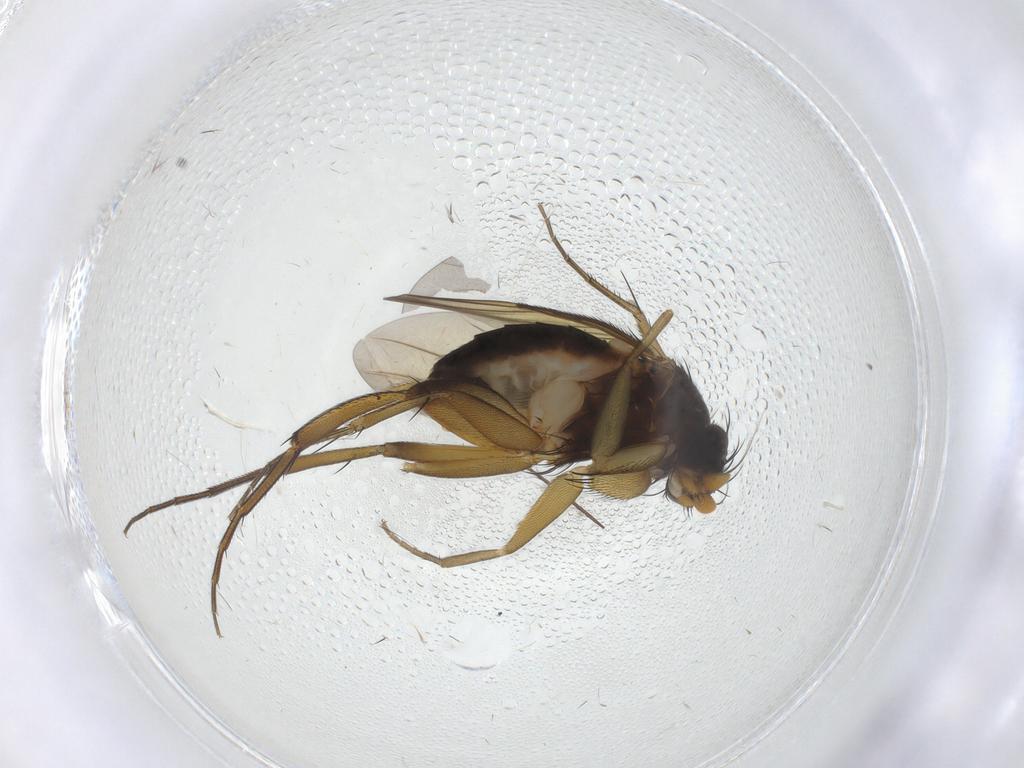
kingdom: Animalia
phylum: Arthropoda
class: Insecta
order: Diptera
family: Phoridae
